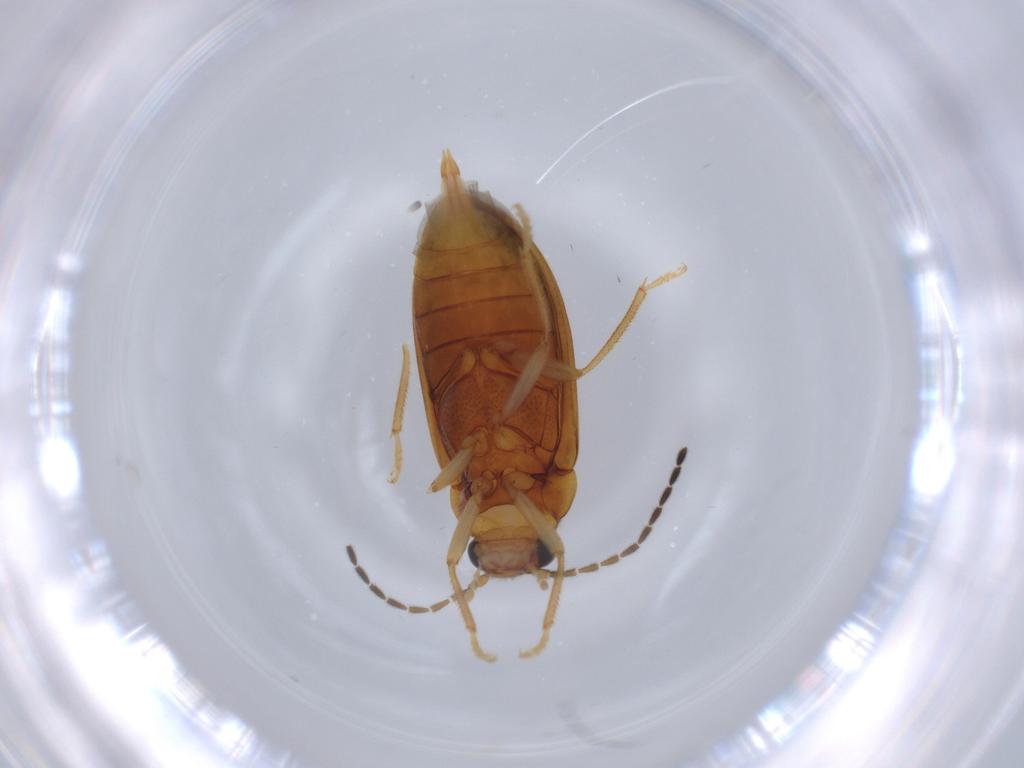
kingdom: Animalia
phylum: Arthropoda
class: Insecta
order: Coleoptera
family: Ptilodactylidae
